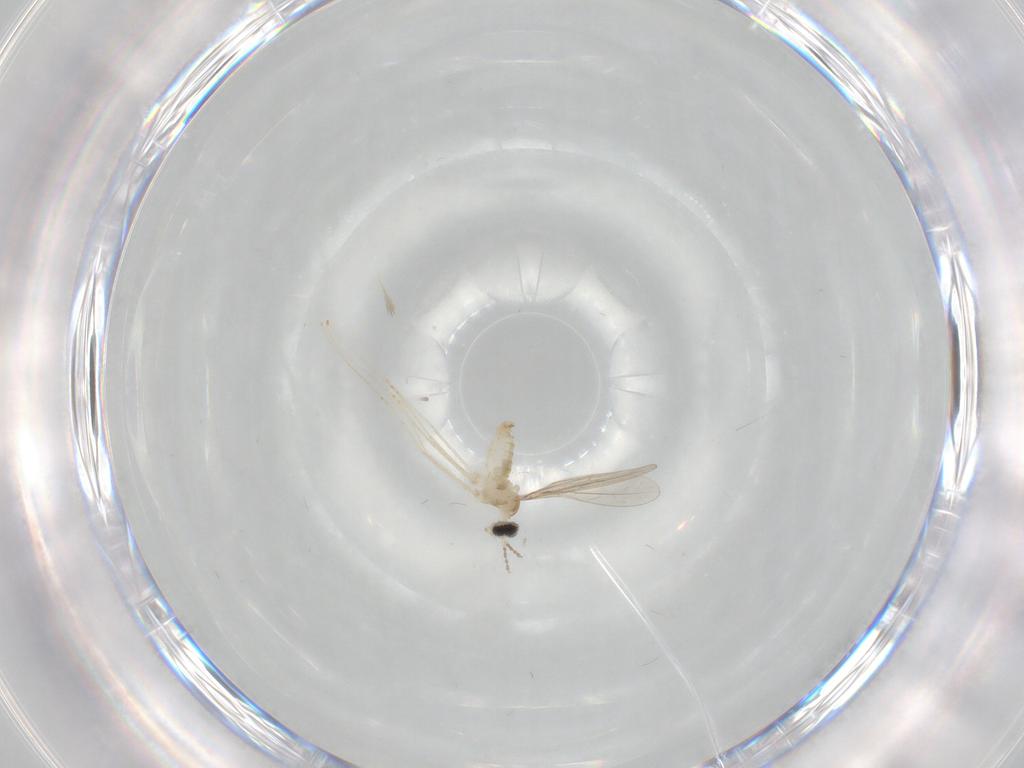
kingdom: Animalia
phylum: Arthropoda
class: Insecta
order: Diptera
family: Cecidomyiidae
